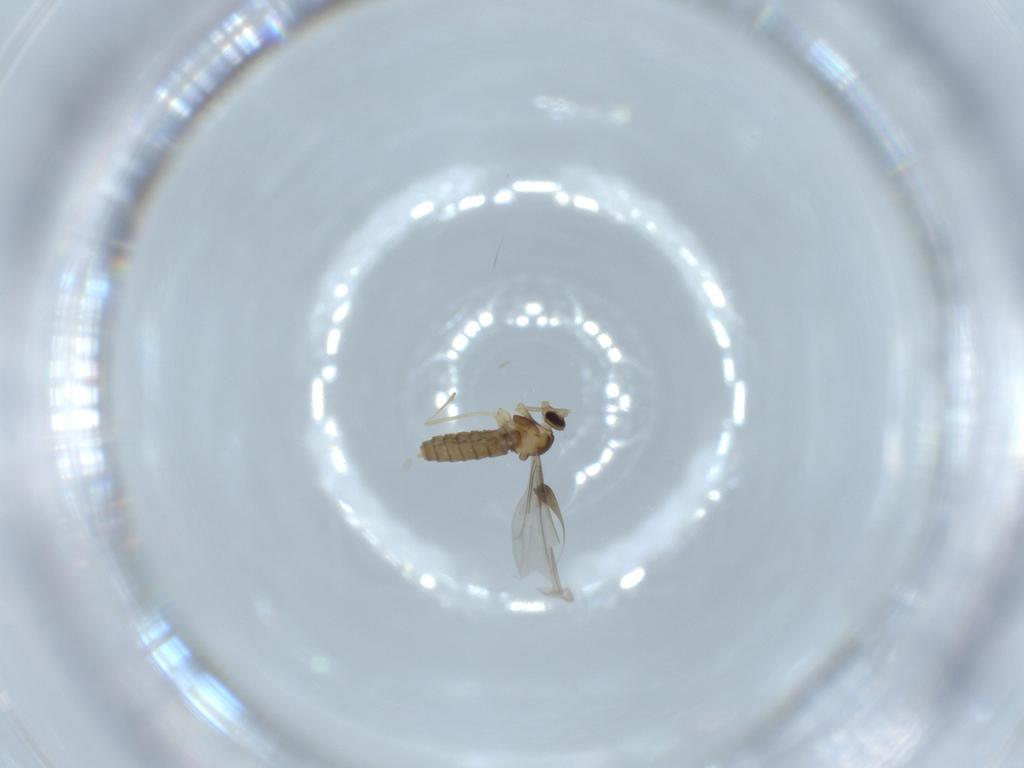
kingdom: Animalia
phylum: Arthropoda
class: Insecta
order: Diptera
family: Cecidomyiidae
